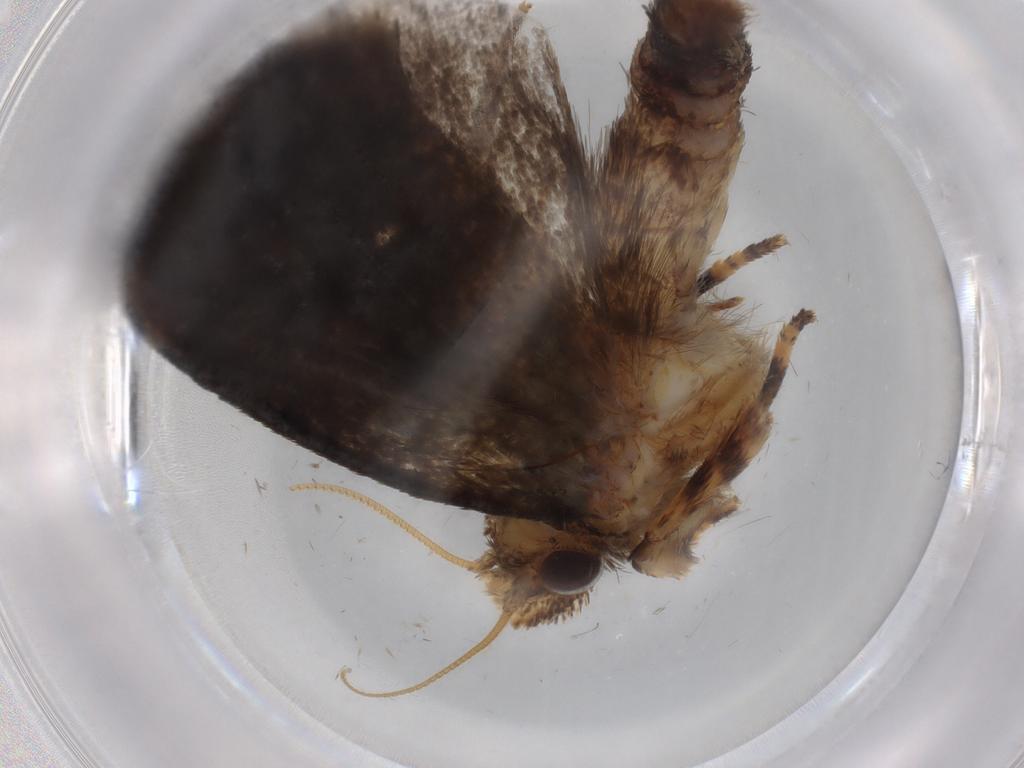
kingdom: Animalia
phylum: Arthropoda
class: Insecta
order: Lepidoptera
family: Tineidae
